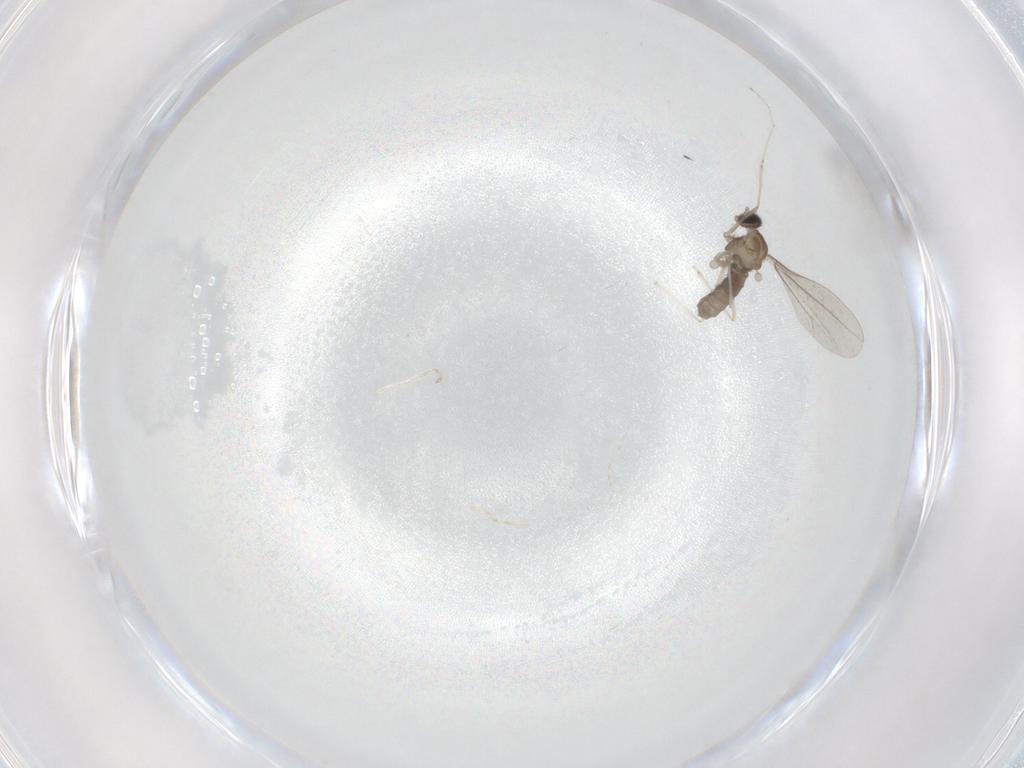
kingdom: Animalia
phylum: Arthropoda
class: Insecta
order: Diptera
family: Cecidomyiidae
